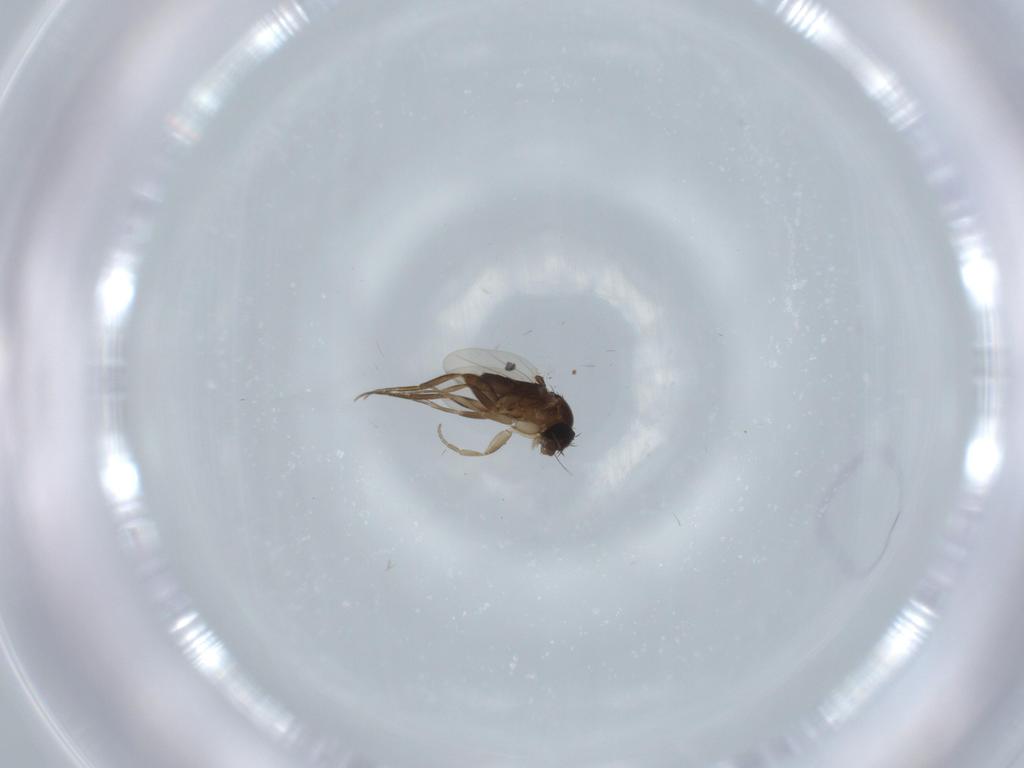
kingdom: Animalia
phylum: Arthropoda
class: Insecta
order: Diptera
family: Phoridae
